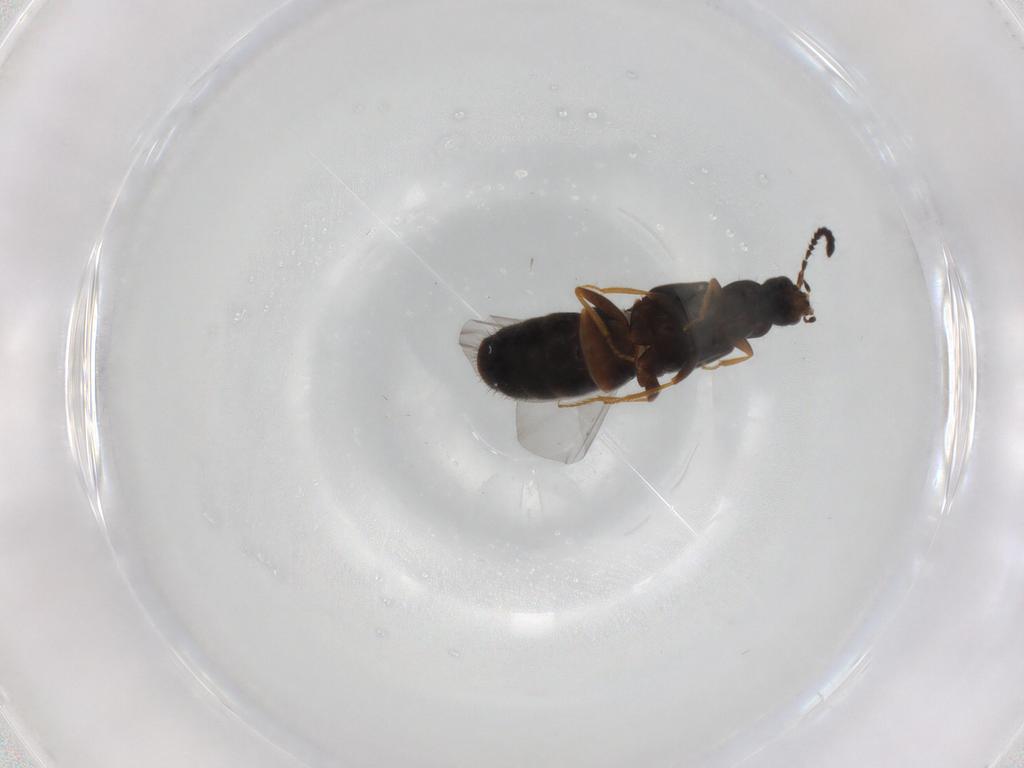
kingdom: Animalia
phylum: Arthropoda
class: Insecta
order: Coleoptera
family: Staphylinidae
